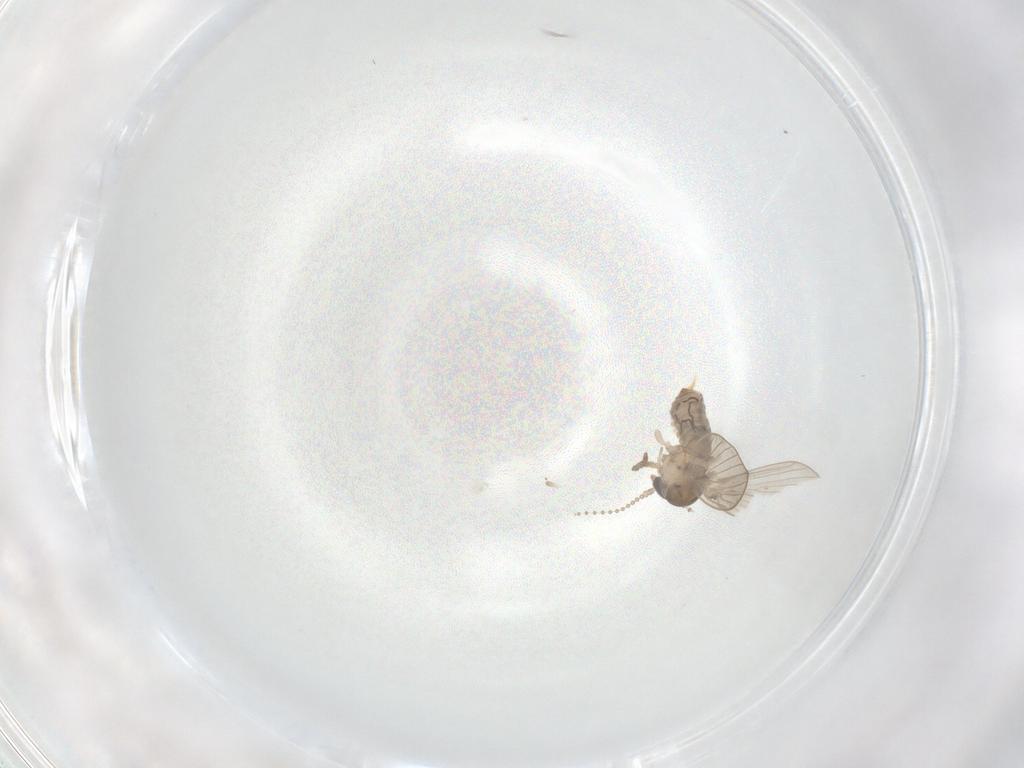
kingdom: Animalia
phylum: Arthropoda
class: Insecta
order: Diptera
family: Psychodidae
